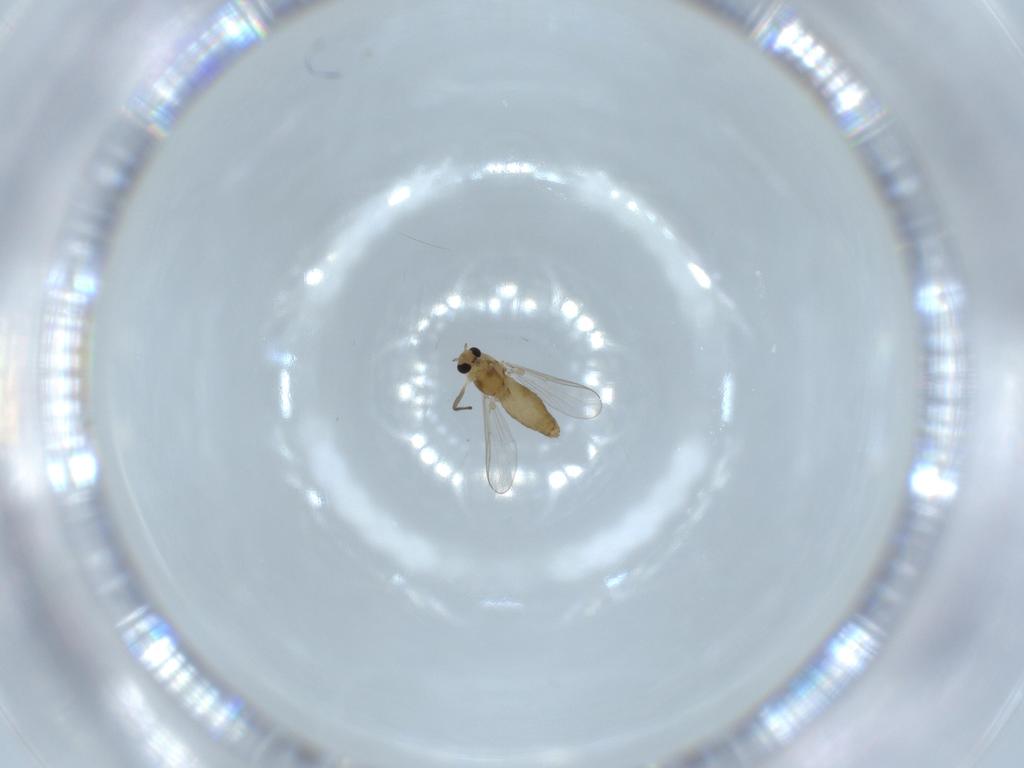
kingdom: Animalia
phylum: Arthropoda
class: Insecta
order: Diptera
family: Chironomidae
